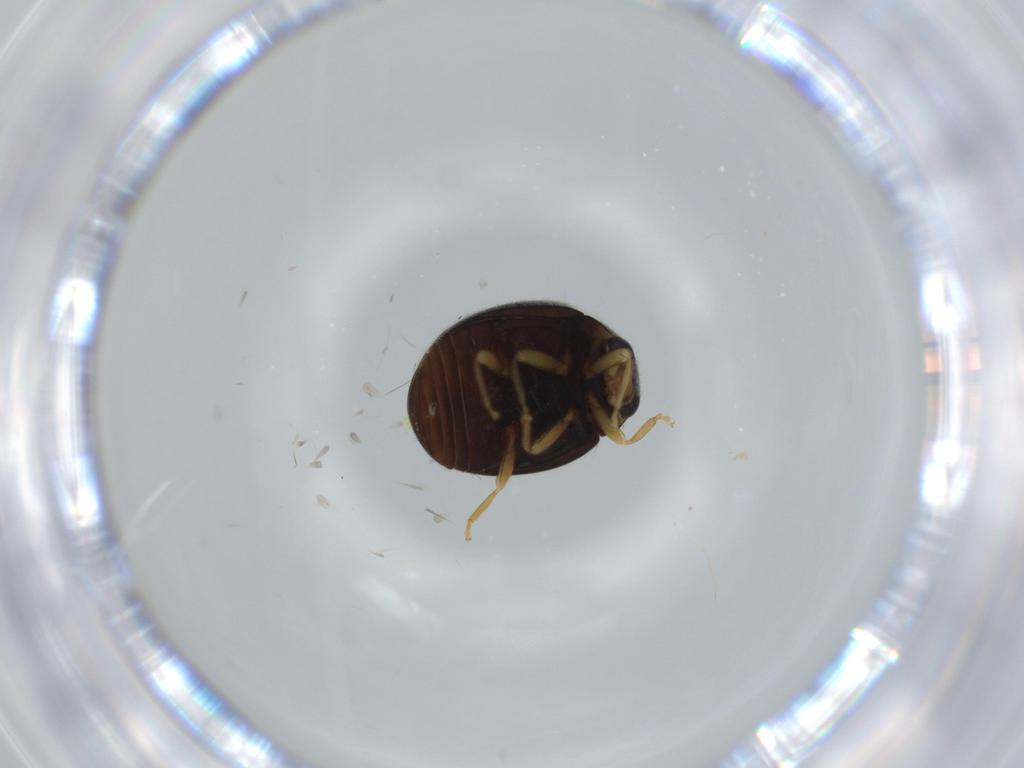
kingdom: Animalia
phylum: Arthropoda
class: Insecta
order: Coleoptera
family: Coccinellidae
